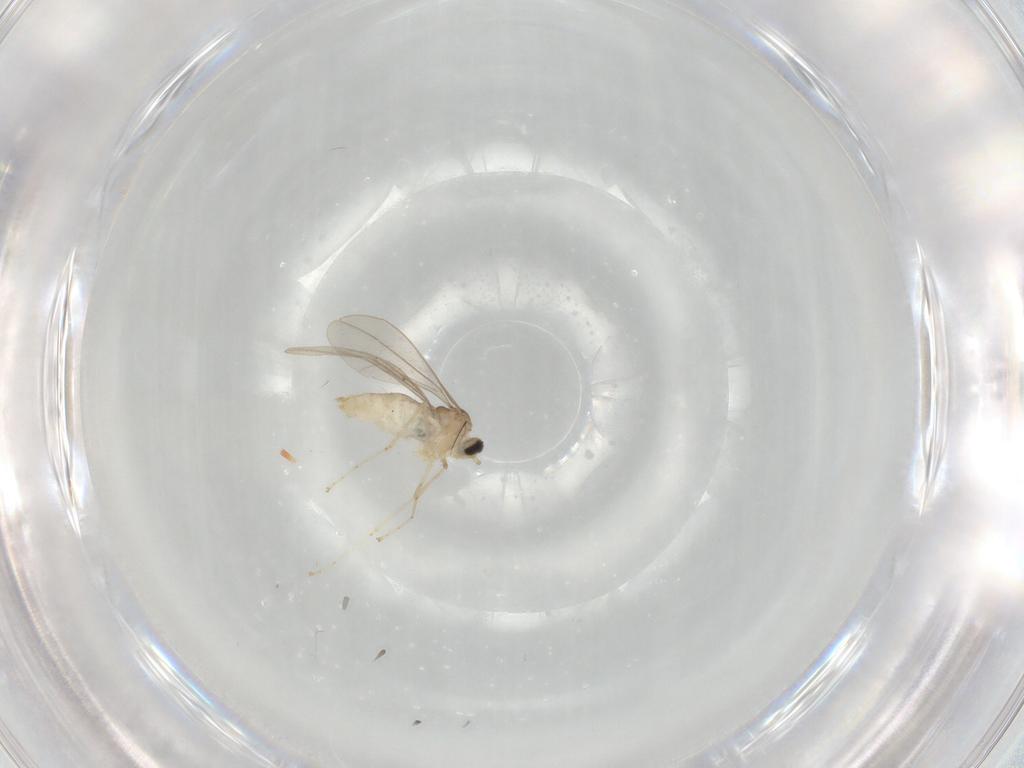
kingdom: Animalia
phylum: Arthropoda
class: Insecta
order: Diptera
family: Cecidomyiidae
